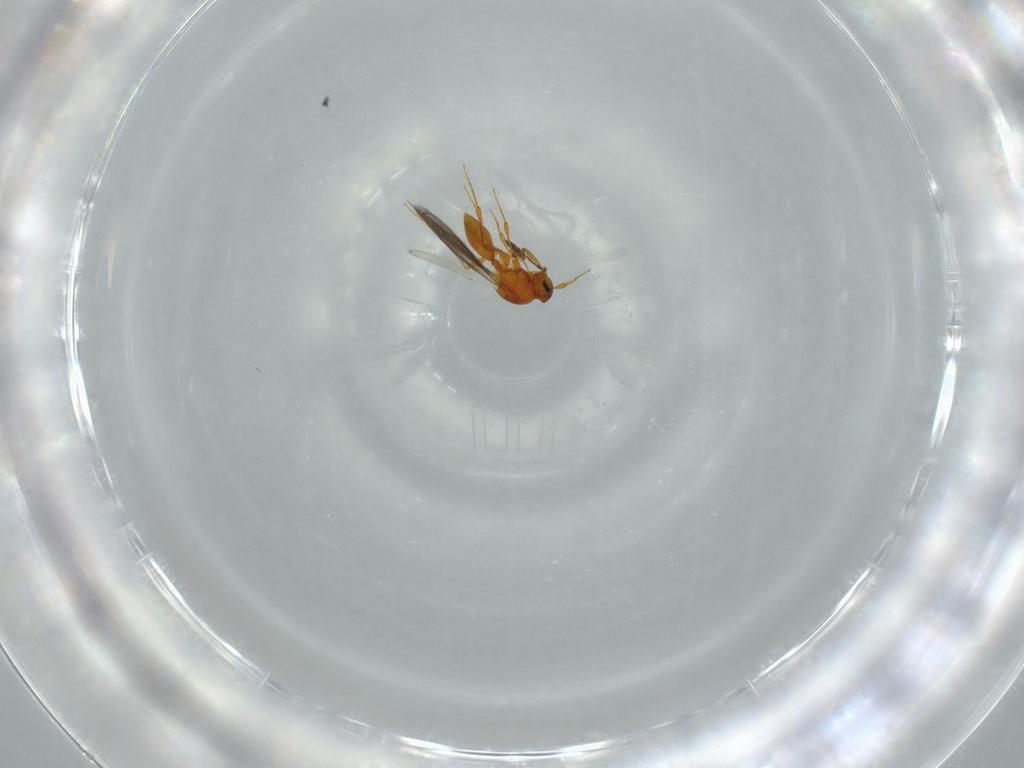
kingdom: Animalia
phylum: Arthropoda
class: Insecta
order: Hymenoptera
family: Platygastridae
